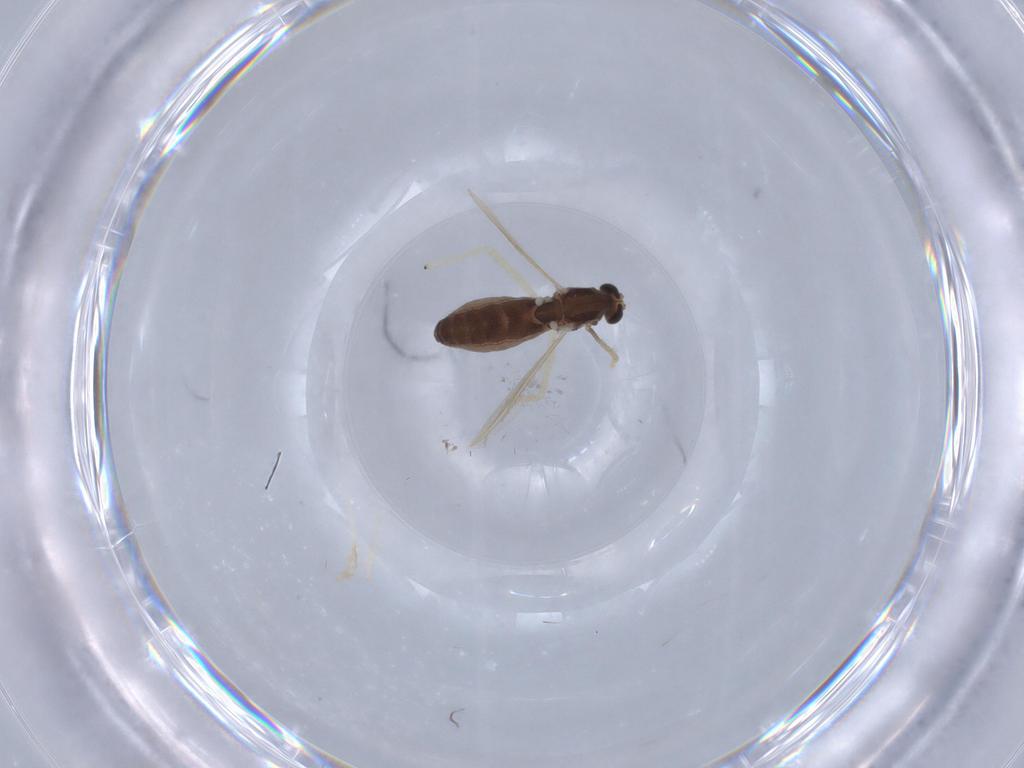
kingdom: Animalia
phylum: Arthropoda
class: Insecta
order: Diptera
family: Chironomidae
